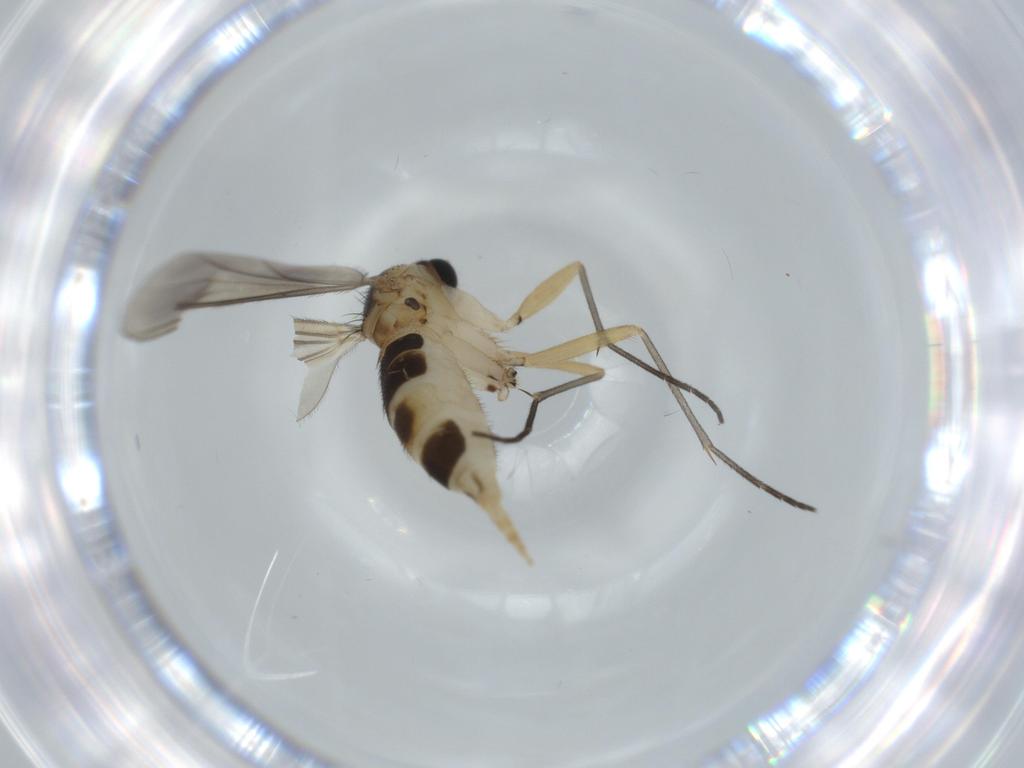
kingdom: Animalia
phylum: Arthropoda
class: Insecta
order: Diptera
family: Sciaridae
